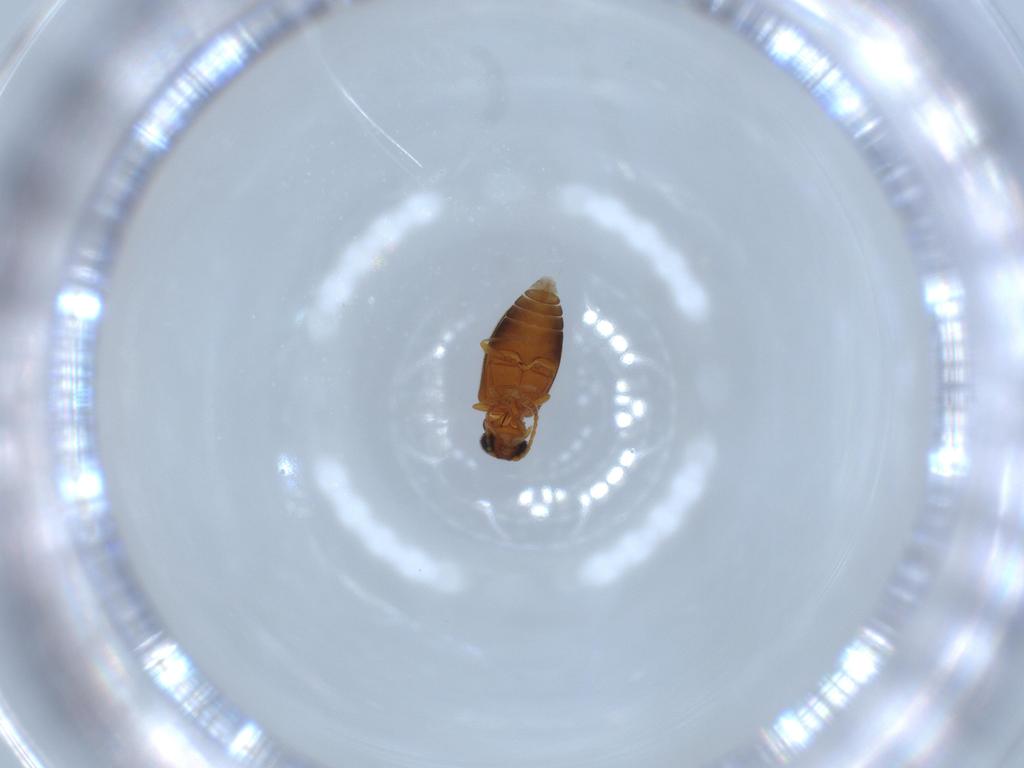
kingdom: Animalia
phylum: Arthropoda
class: Insecta
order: Coleoptera
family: Aderidae
